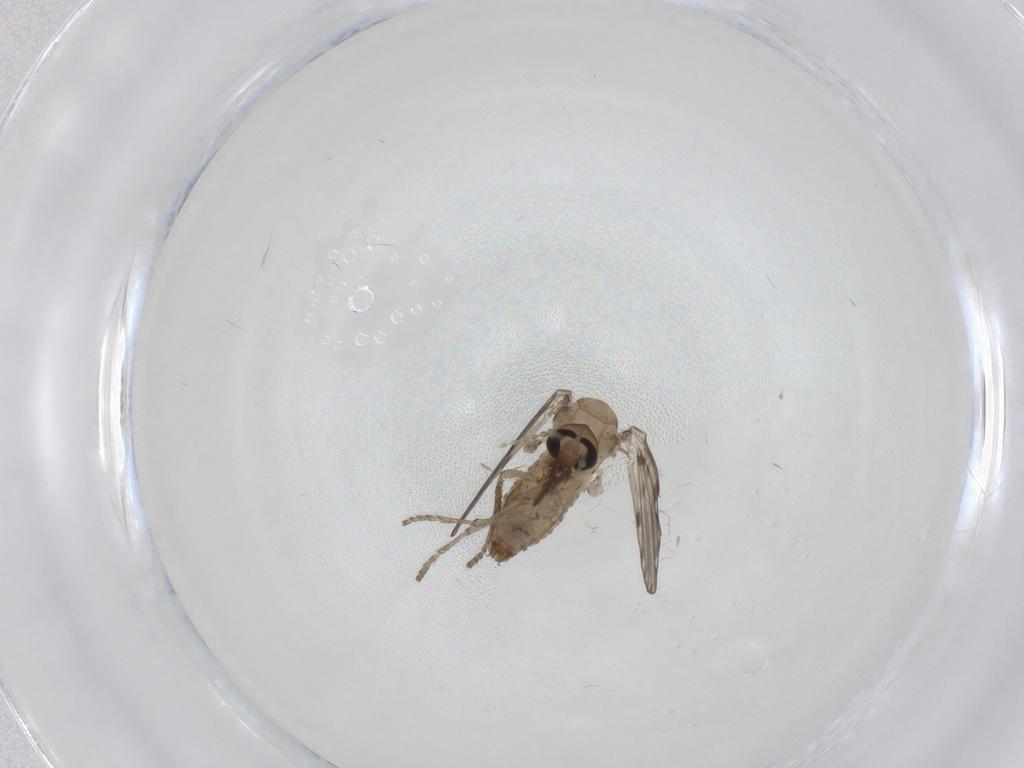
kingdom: Animalia
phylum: Arthropoda
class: Insecta
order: Diptera
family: Psychodidae
